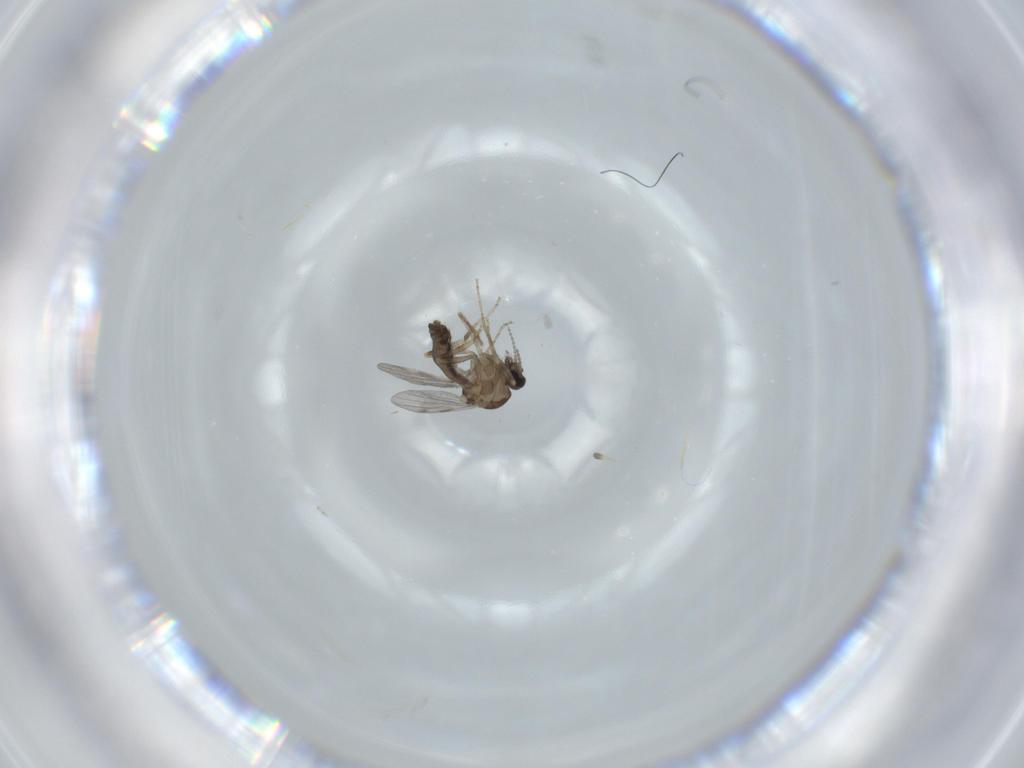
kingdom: Animalia
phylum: Arthropoda
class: Insecta
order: Diptera
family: Ceratopogonidae
